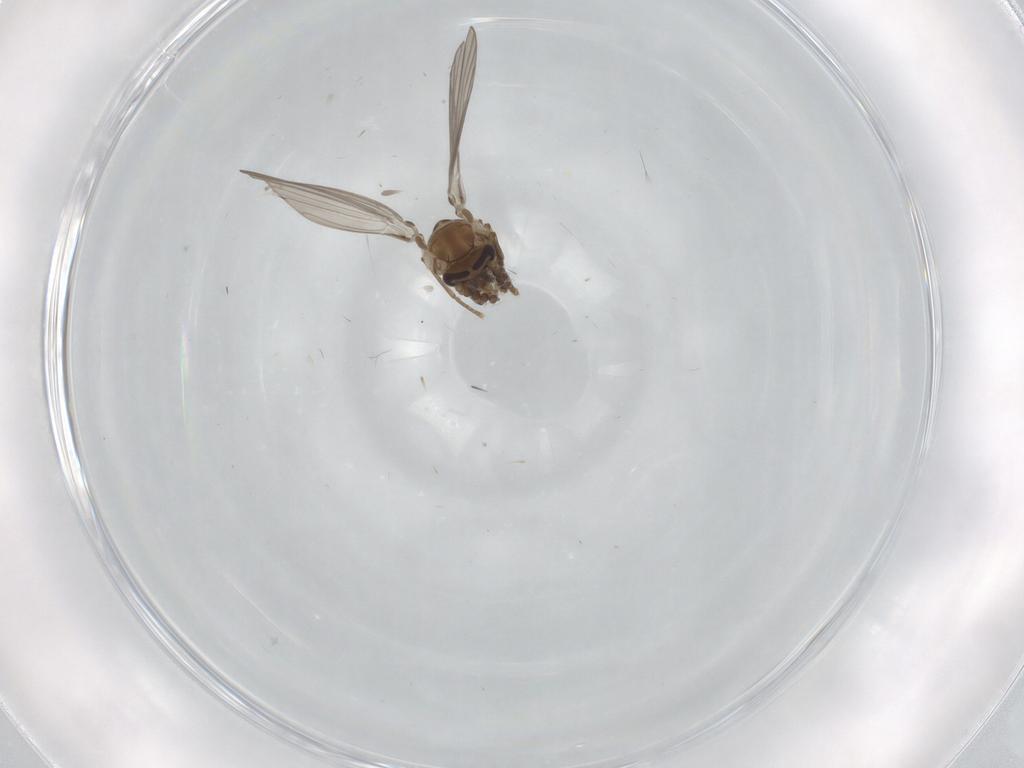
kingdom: Animalia
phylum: Arthropoda
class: Insecta
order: Diptera
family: Psychodidae
